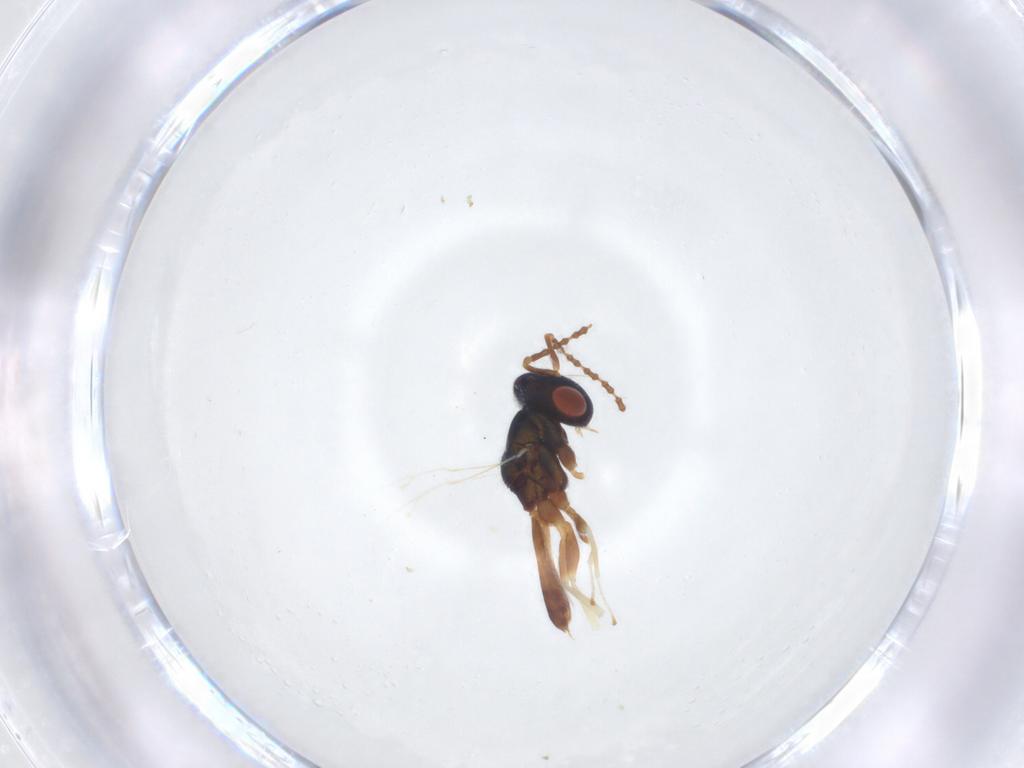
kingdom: Animalia
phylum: Arthropoda
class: Insecta
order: Hymenoptera
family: Pteromalidae
